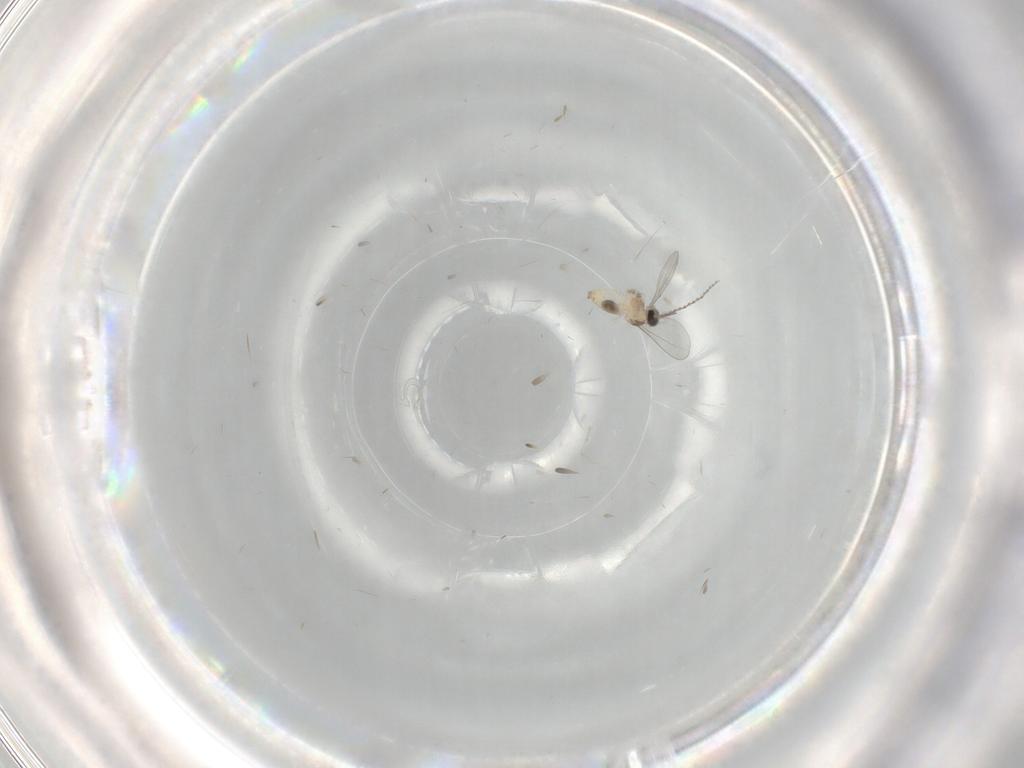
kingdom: Animalia
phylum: Arthropoda
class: Insecta
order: Diptera
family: Cecidomyiidae
